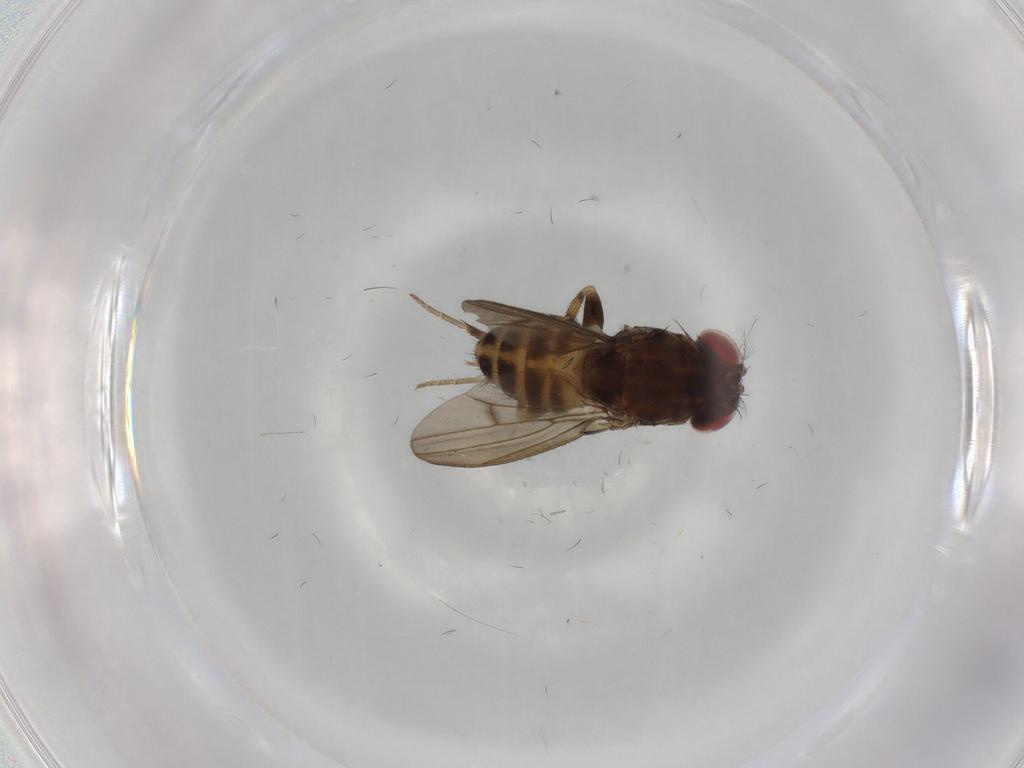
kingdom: Animalia
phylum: Arthropoda
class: Insecta
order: Diptera
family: Drosophilidae
